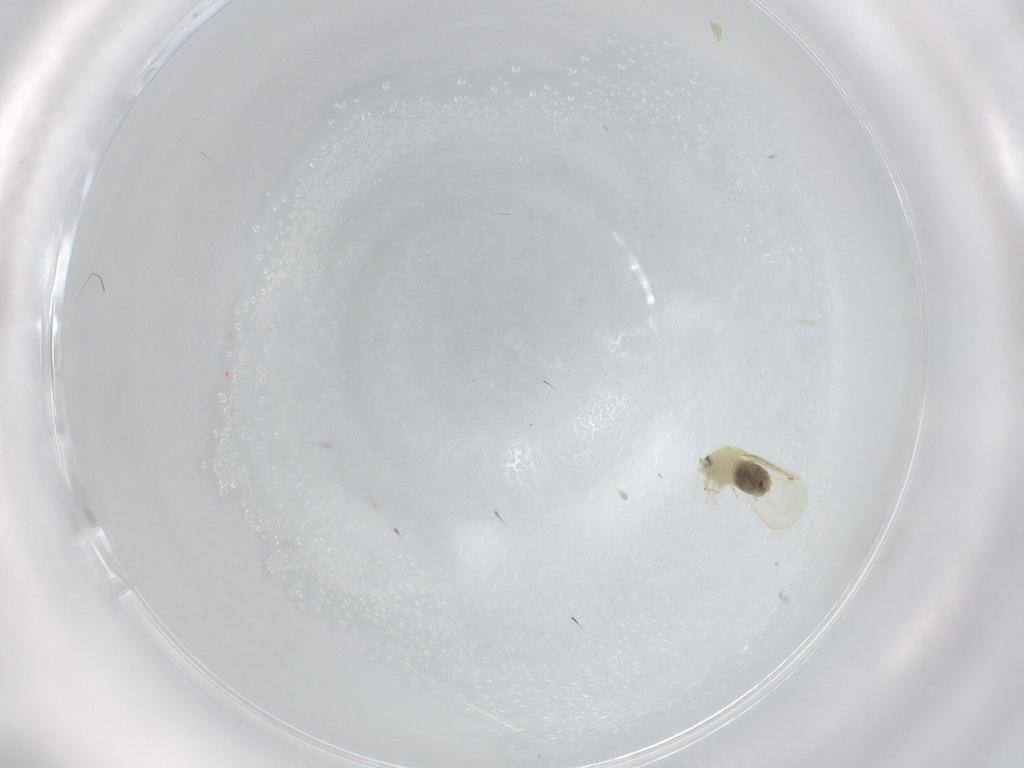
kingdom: Animalia
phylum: Arthropoda
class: Insecta
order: Hemiptera
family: Aleyrodidae
